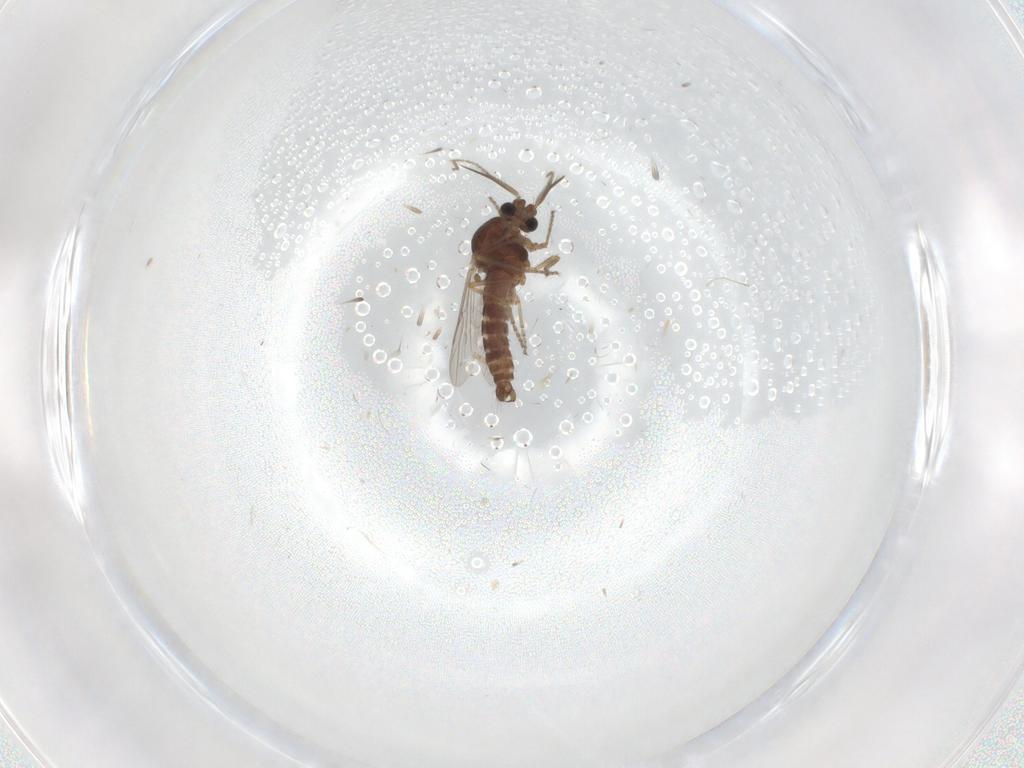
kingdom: Animalia
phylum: Arthropoda
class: Insecta
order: Diptera
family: Ceratopogonidae
